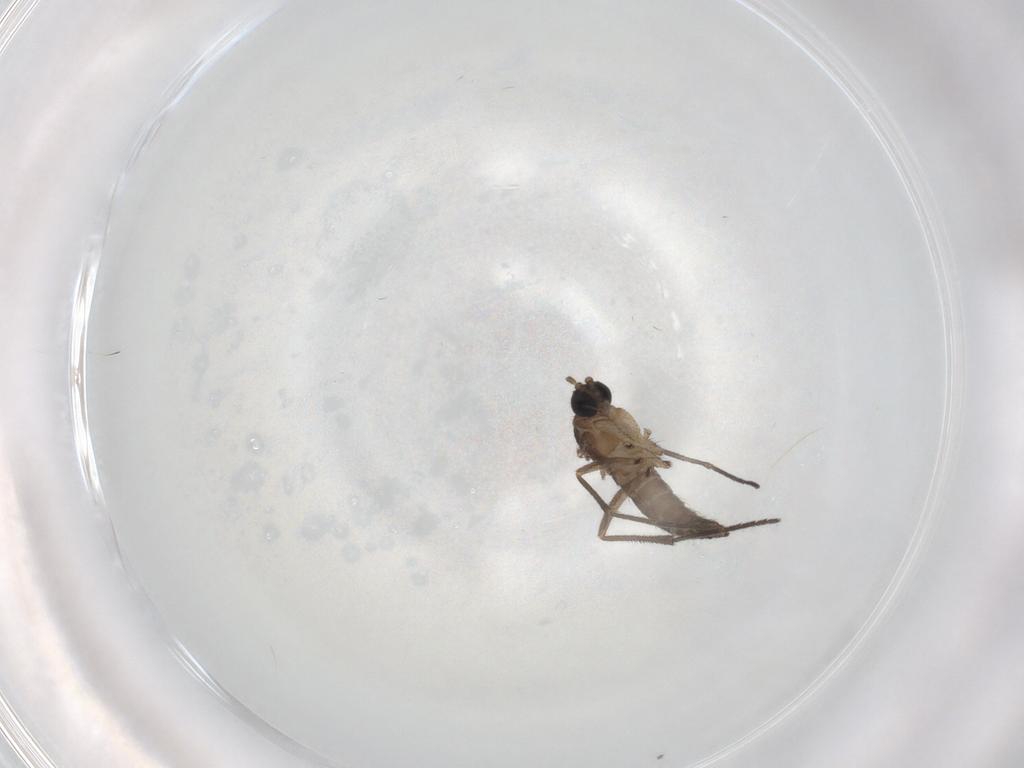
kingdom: Animalia
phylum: Arthropoda
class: Insecta
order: Diptera
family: Sciaridae
